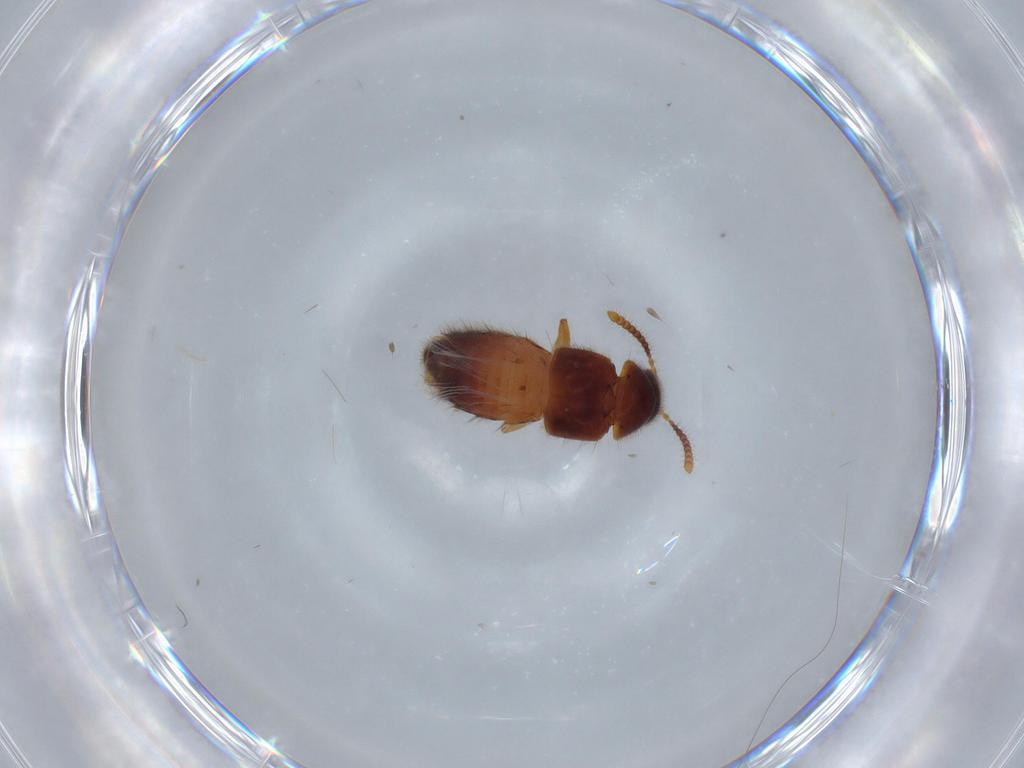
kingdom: Animalia
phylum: Arthropoda
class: Insecta
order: Coleoptera
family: Staphylinidae
